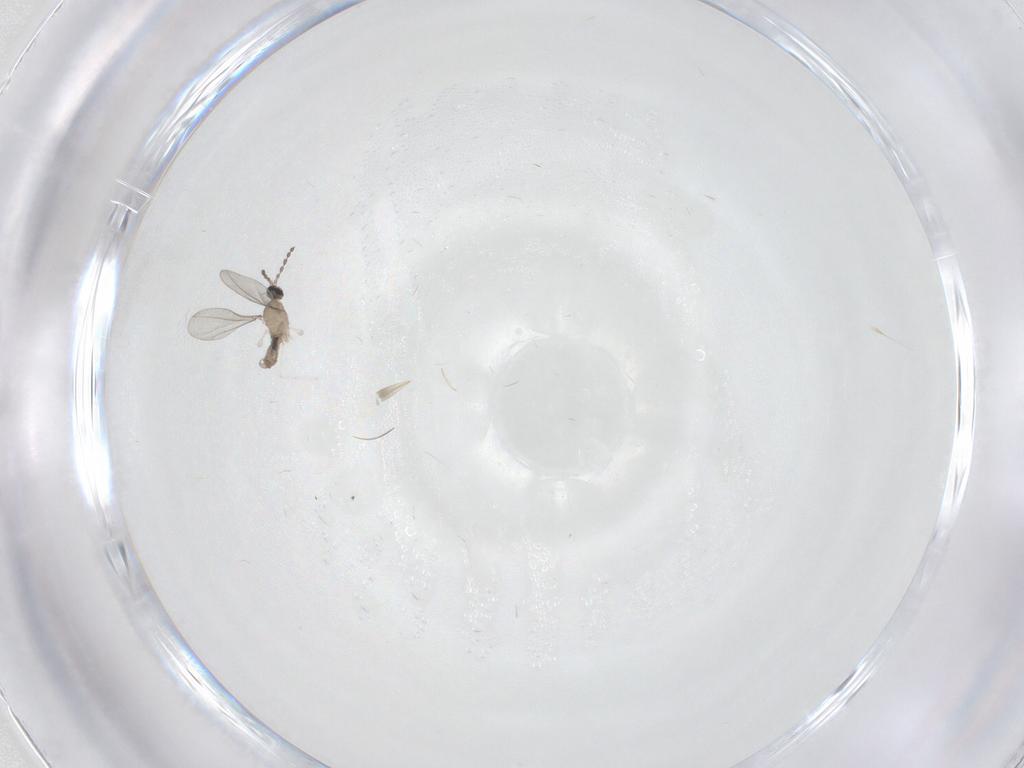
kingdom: Animalia
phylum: Arthropoda
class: Insecta
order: Diptera
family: Cecidomyiidae
